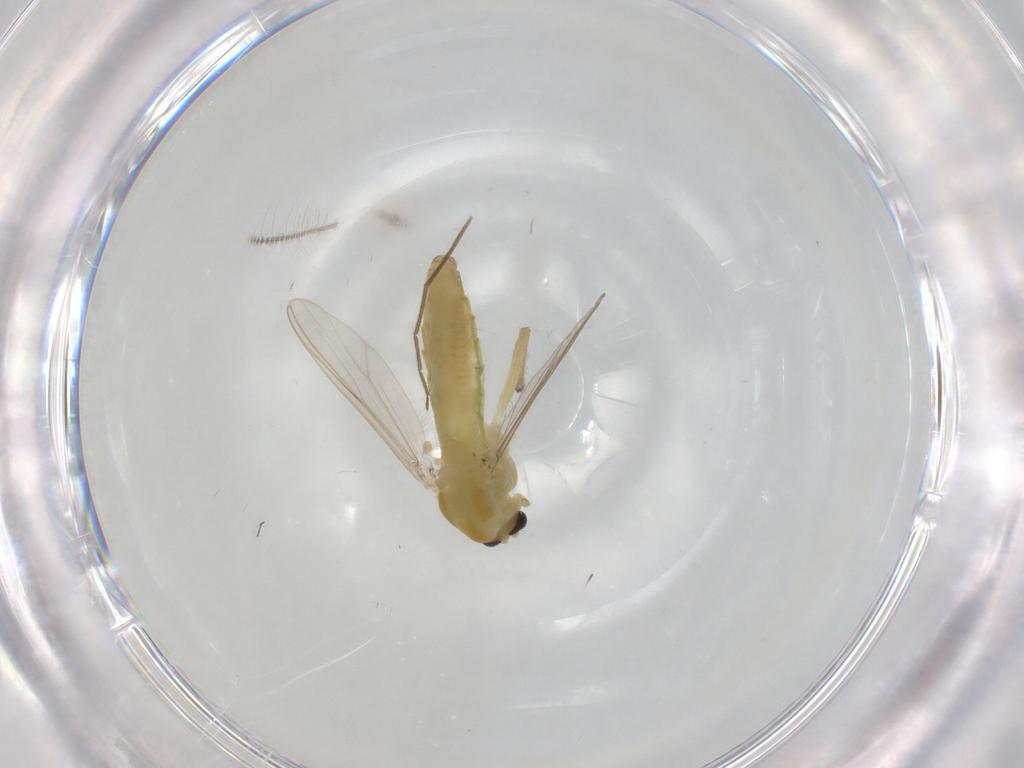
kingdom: Animalia
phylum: Arthropoda
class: Insecta
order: Diptera
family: Chironomidae
